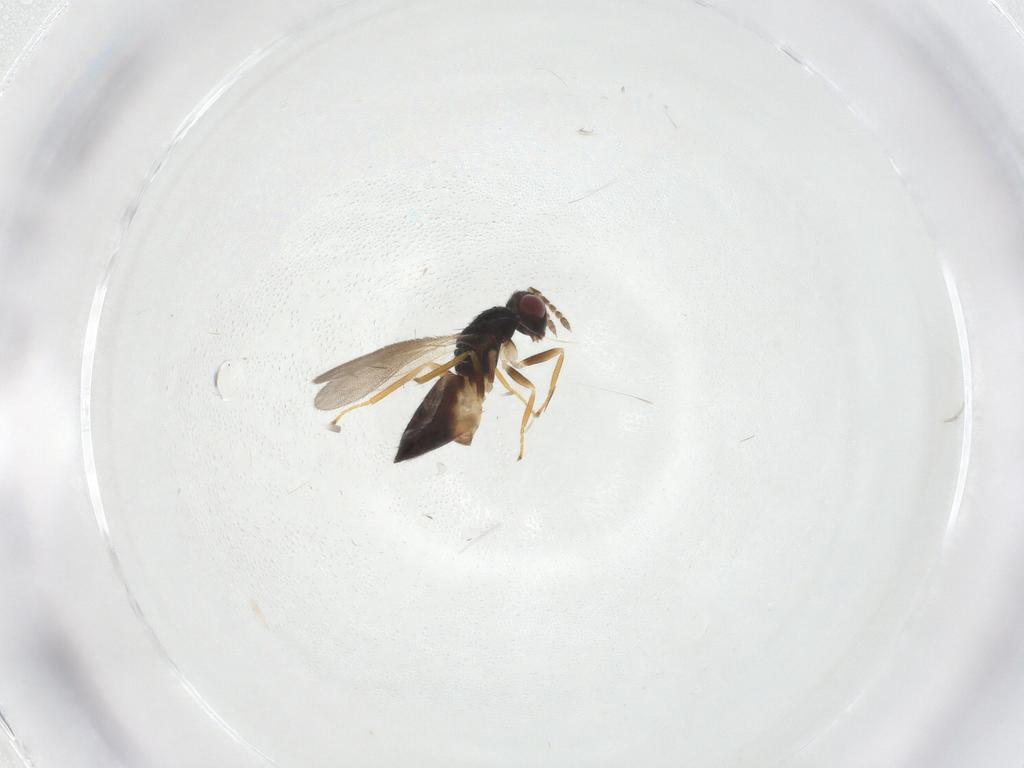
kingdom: Animalia
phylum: Arthropoda
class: Insecta
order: Hymenoptera
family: Eulophidae
